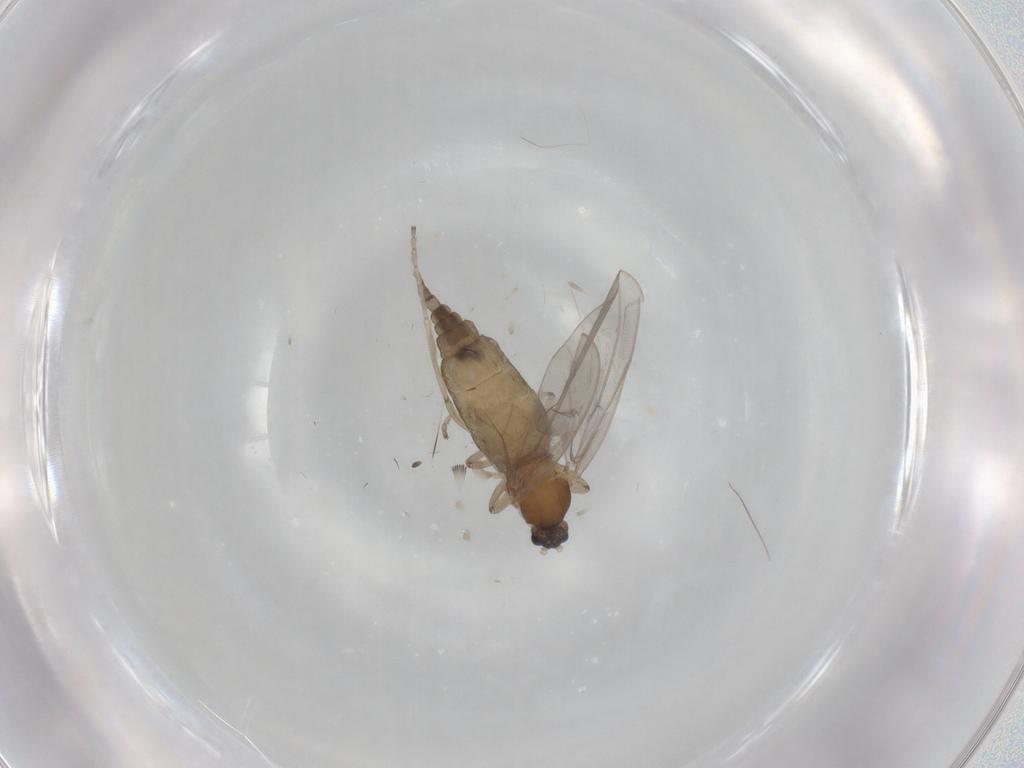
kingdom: Animalia
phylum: Arthropoda
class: Insecta
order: Diptera
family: Cecidomyiidae
